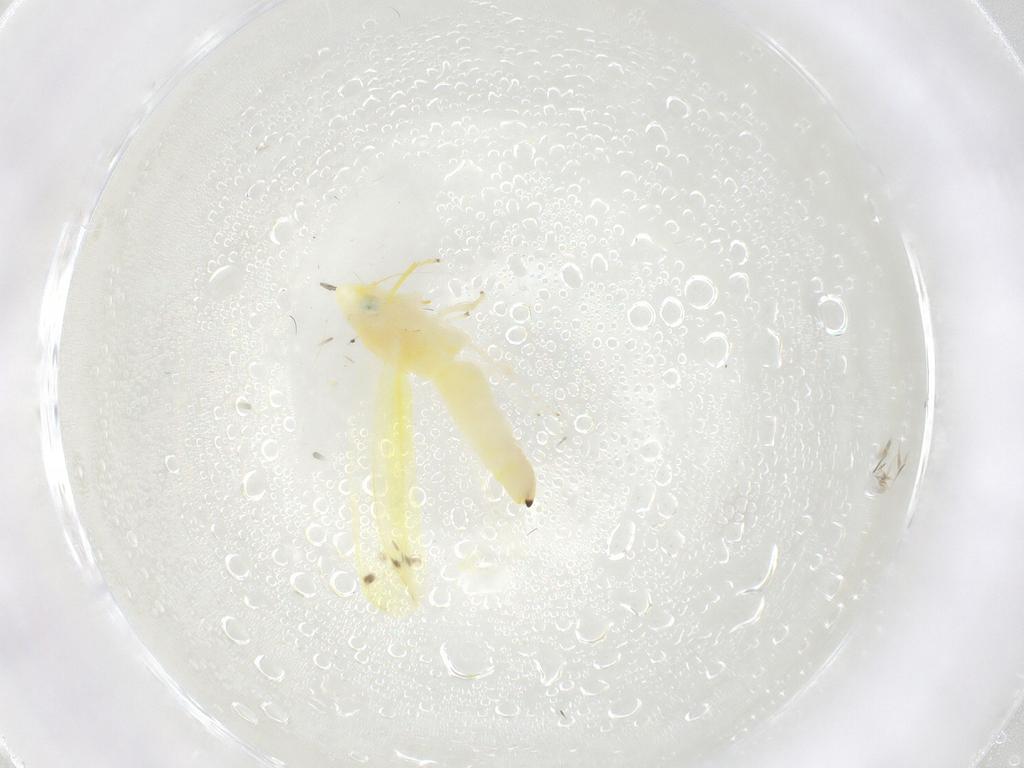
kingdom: Animalia
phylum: Arthropoda
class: Insecta
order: Hemiptera
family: Cicadellidae
